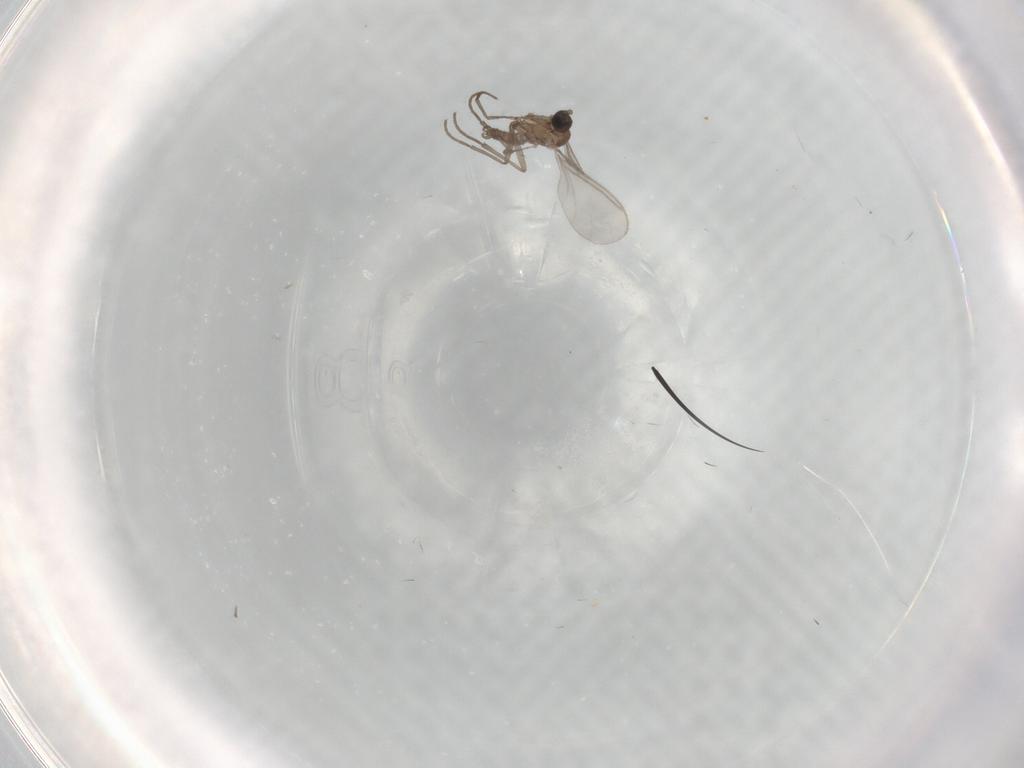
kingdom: Animalia
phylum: Arthropoda
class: Insecta
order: Diptera
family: Sciaridae
